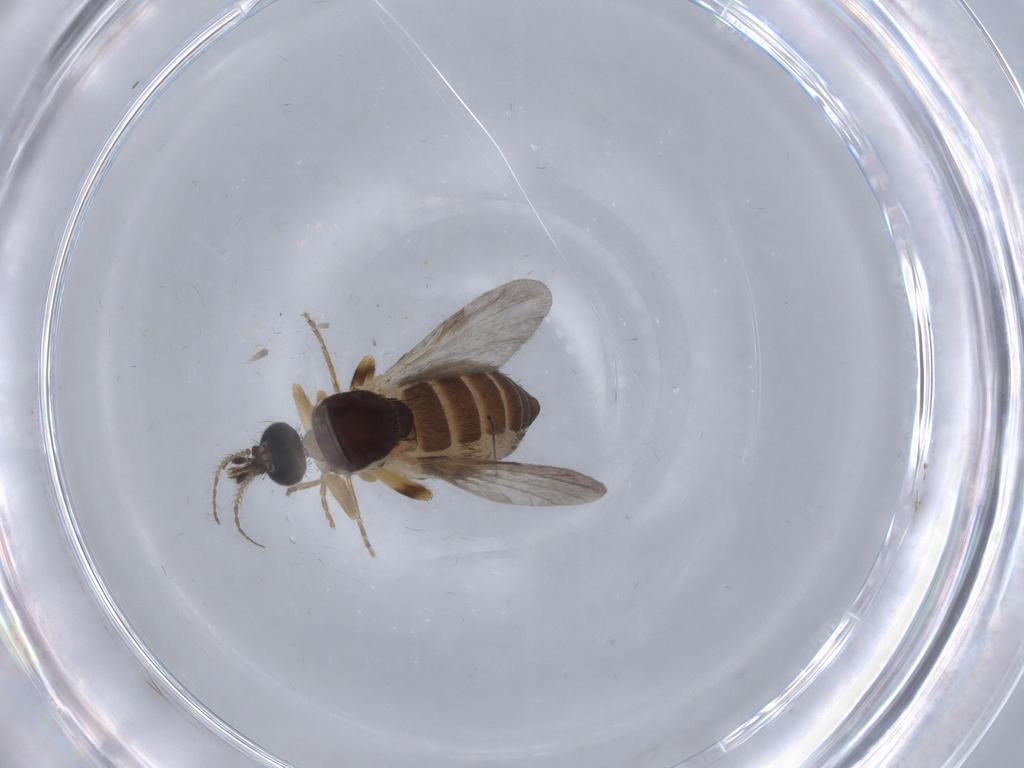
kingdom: Animalia
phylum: Arthropoda
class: Insecta
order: Diptera
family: Ceratopogonidae
